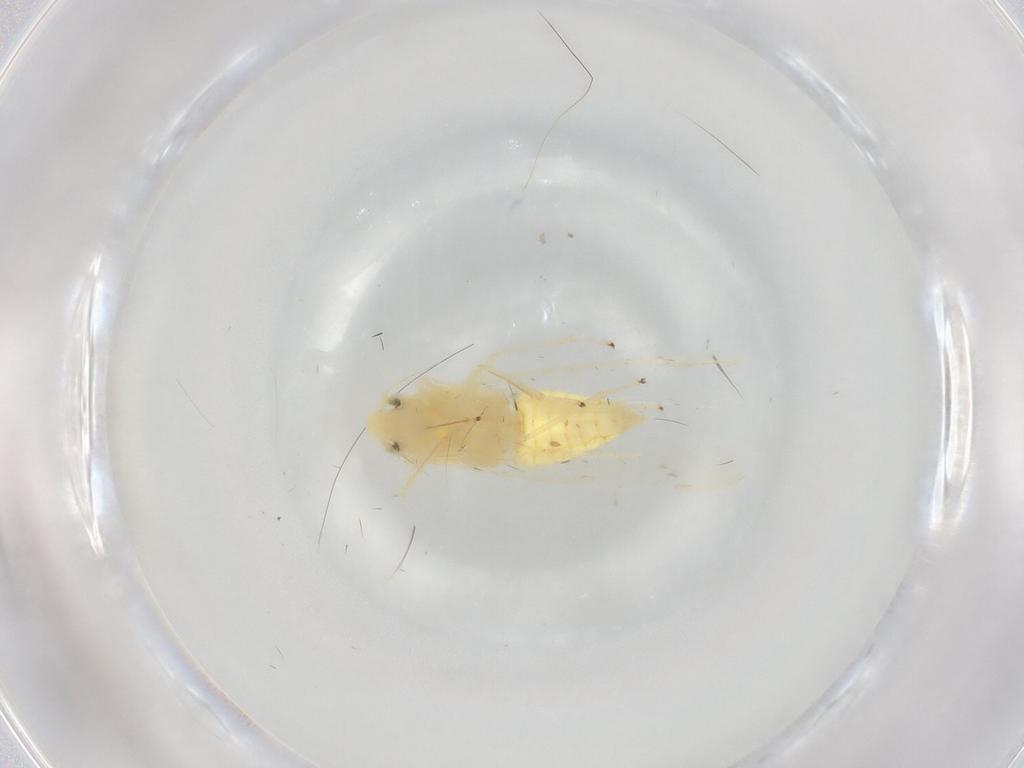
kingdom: Animalia
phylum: Arthropoda
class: Insecta
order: Hemiptera
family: Cicadellidae
